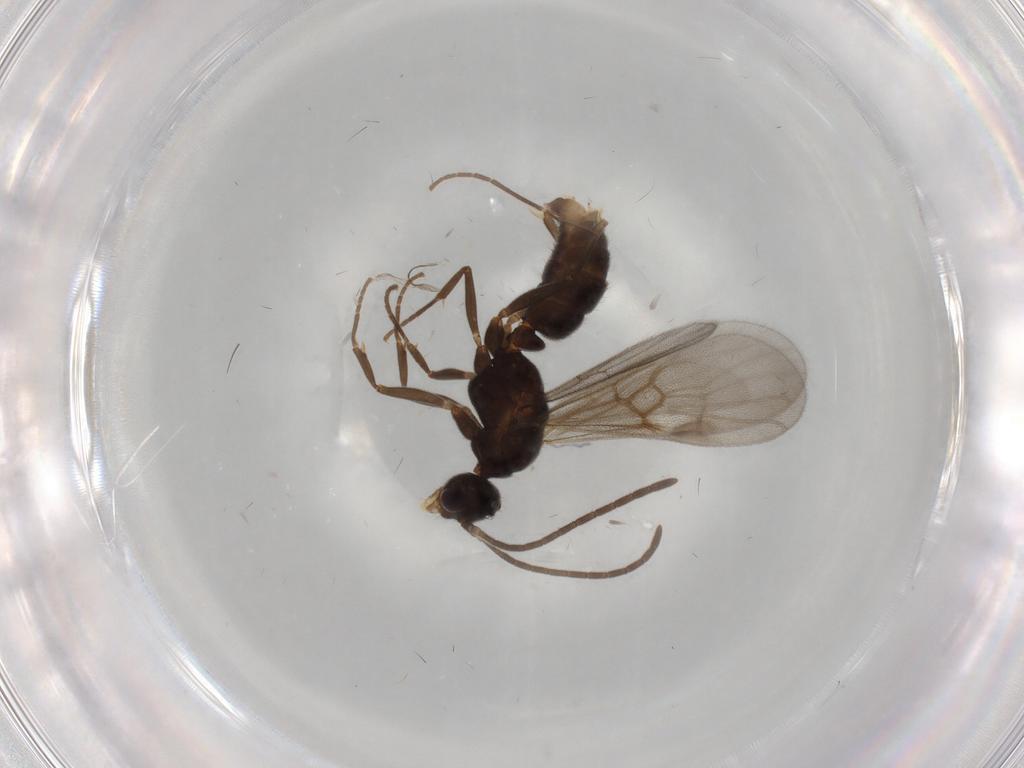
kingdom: Animalia
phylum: Arthropoda
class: Insecta
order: Hymenoptera
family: Formicidae
